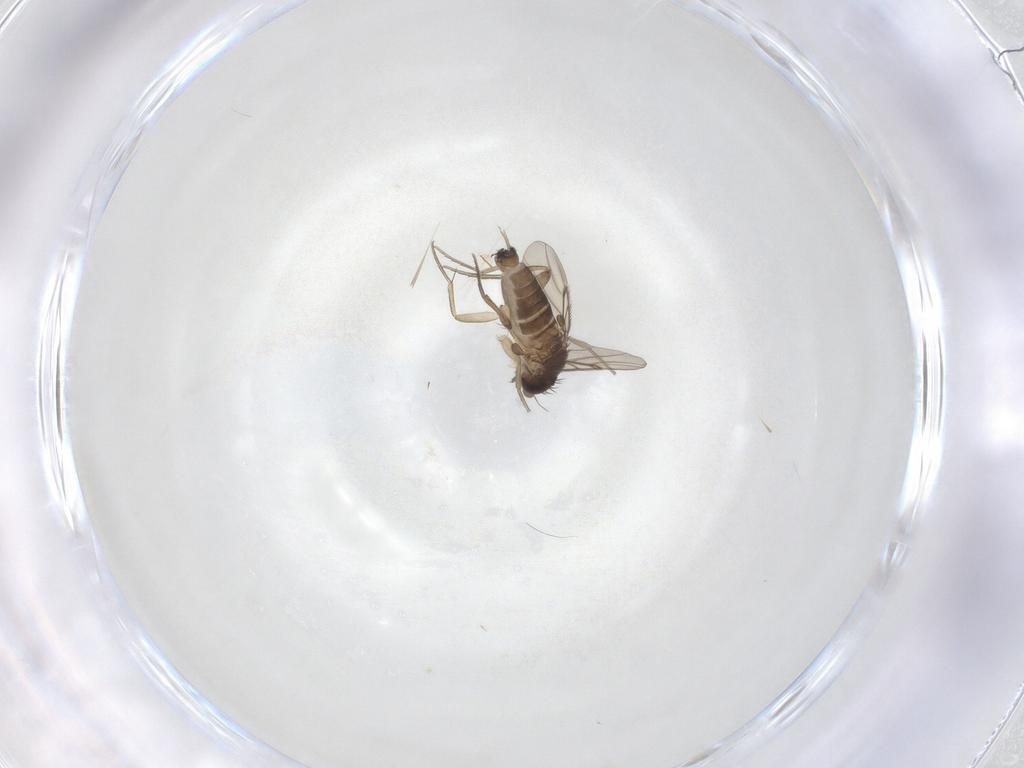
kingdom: Animalia
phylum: Arthropoda
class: Insecta
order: Diptera
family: Phoridae
